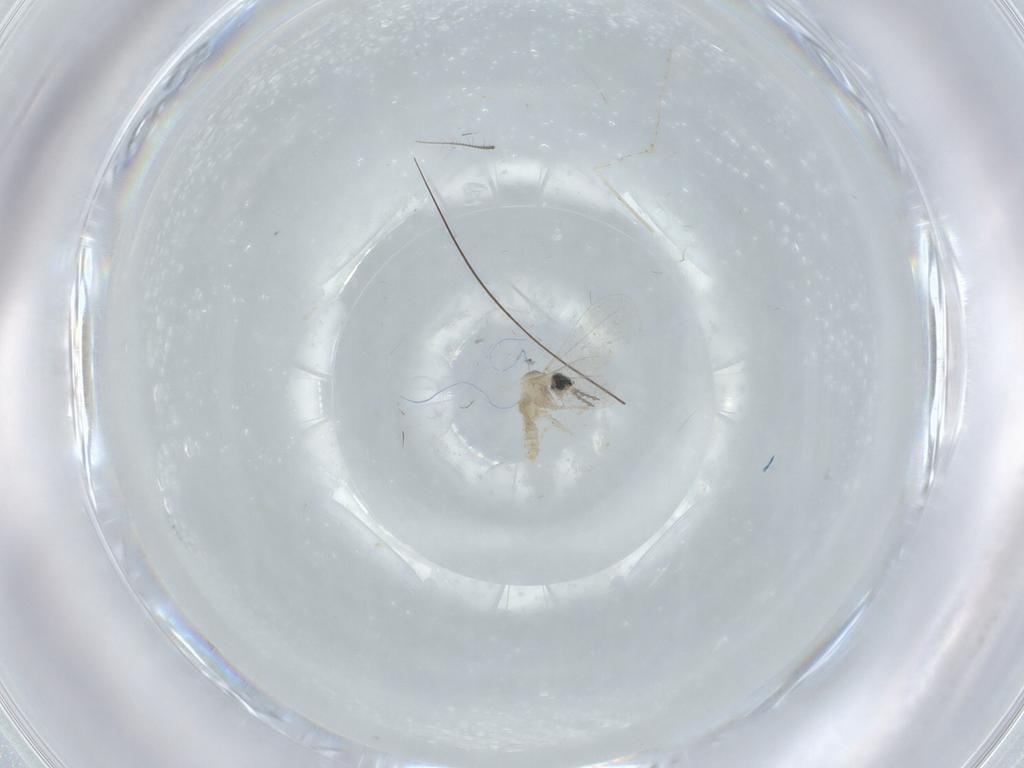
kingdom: Animalia
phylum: Arthropoda
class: Insecta
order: Diptera
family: Cecidomyiidae
